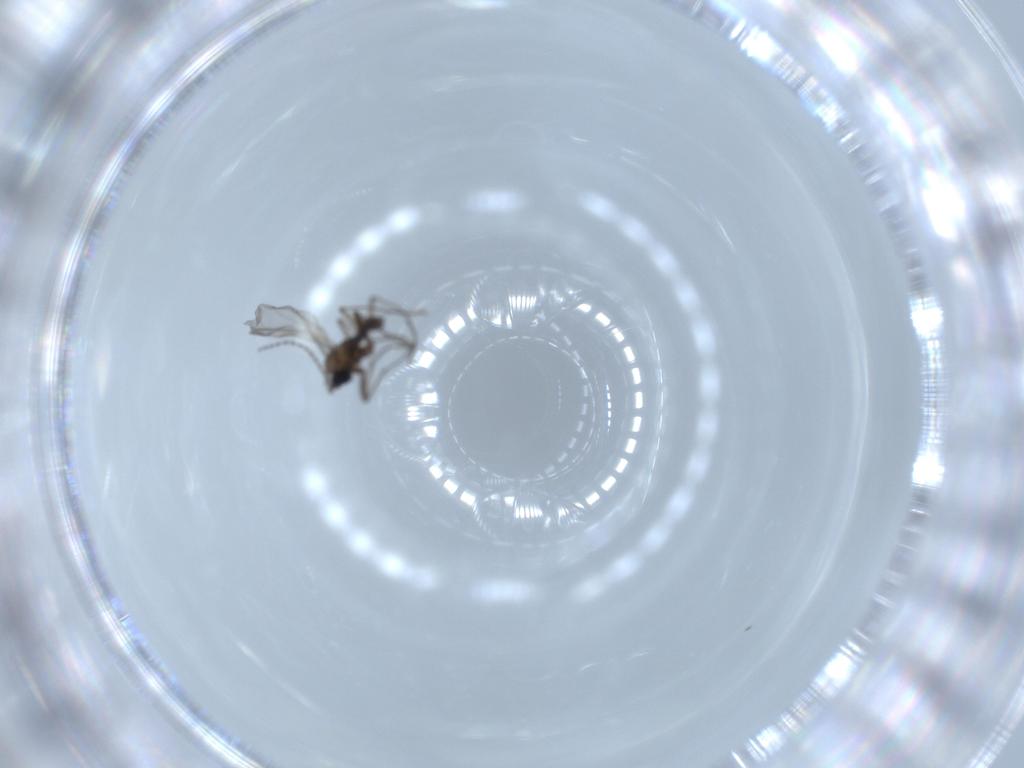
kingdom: Animalia
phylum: Arthropoda
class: Insecta
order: Diptera
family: Sciaridae
